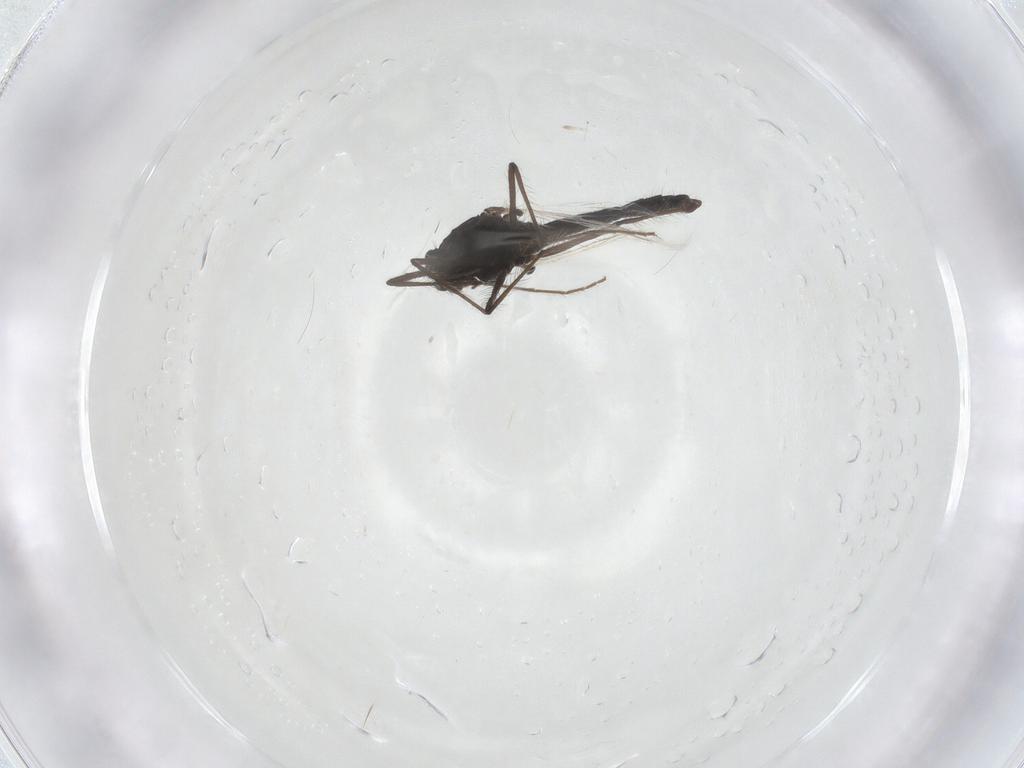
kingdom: Animalia
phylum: Arthropoda
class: Insecta
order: Diptera
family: Chironomidae
